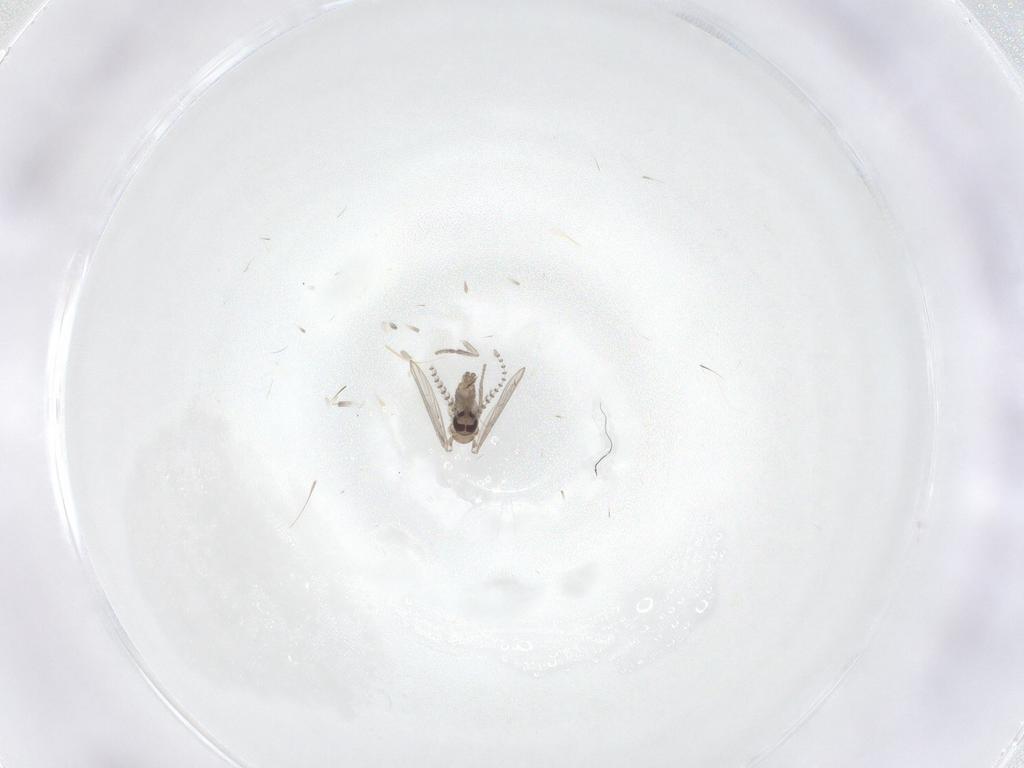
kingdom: Animalia
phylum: Arthropoda
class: Insecta
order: Diptera
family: Psychodidae
